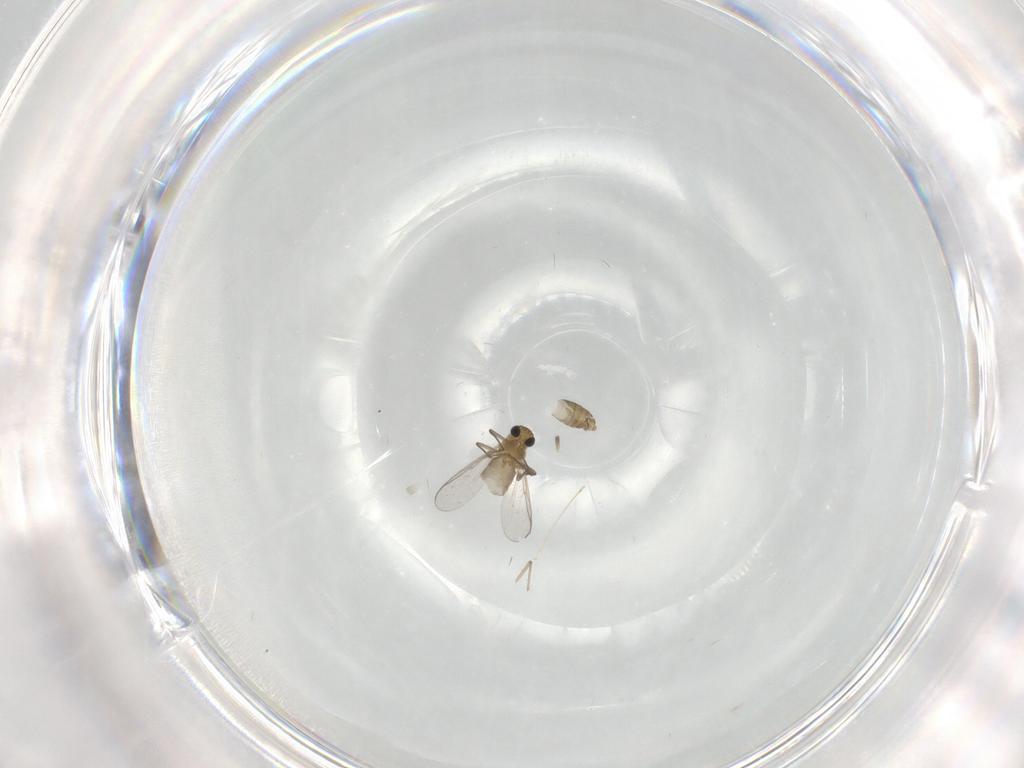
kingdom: Animalia
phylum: Arthropoda
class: Insecta
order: Diptera
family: Chironomidae
